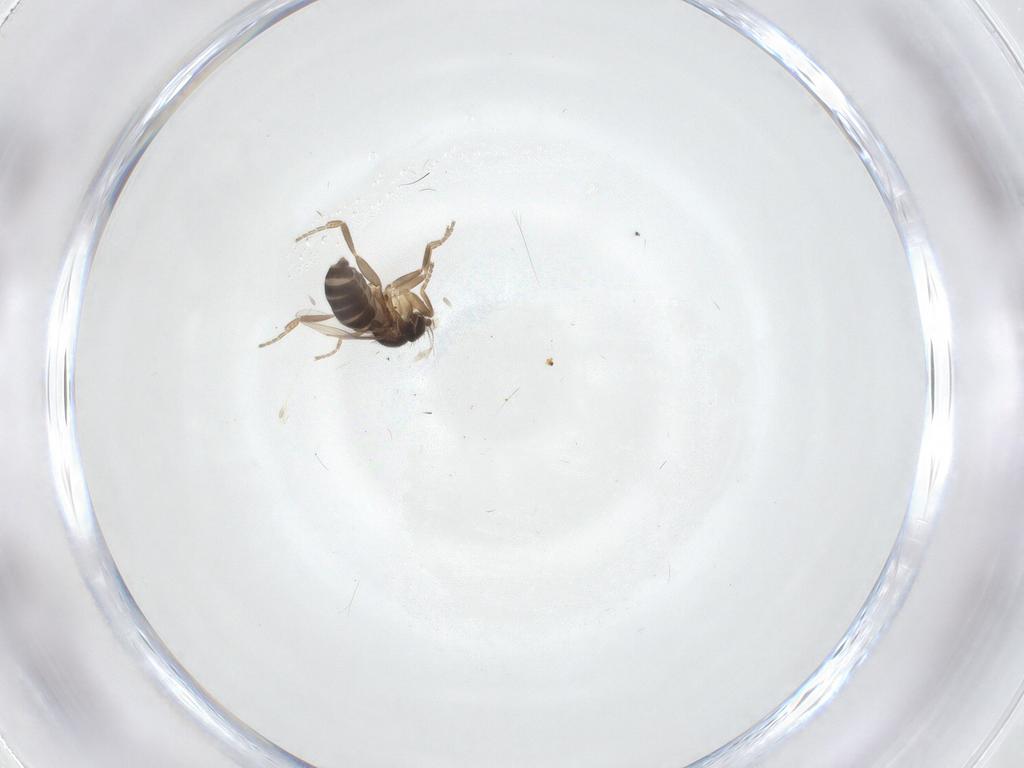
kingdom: Animalia
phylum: Arthropoda
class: Insecta
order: Diptera
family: Phoridae
